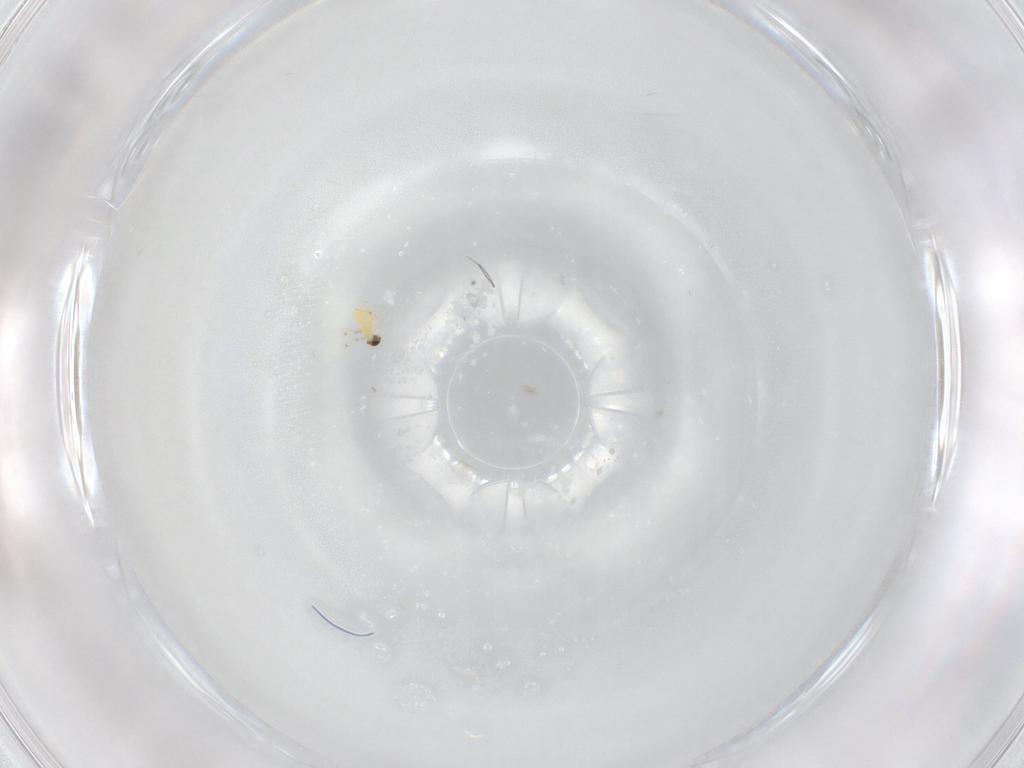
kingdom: Animalia
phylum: Arthropoda
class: Insecta
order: Hymenoptera
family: Trichogrammatidae
